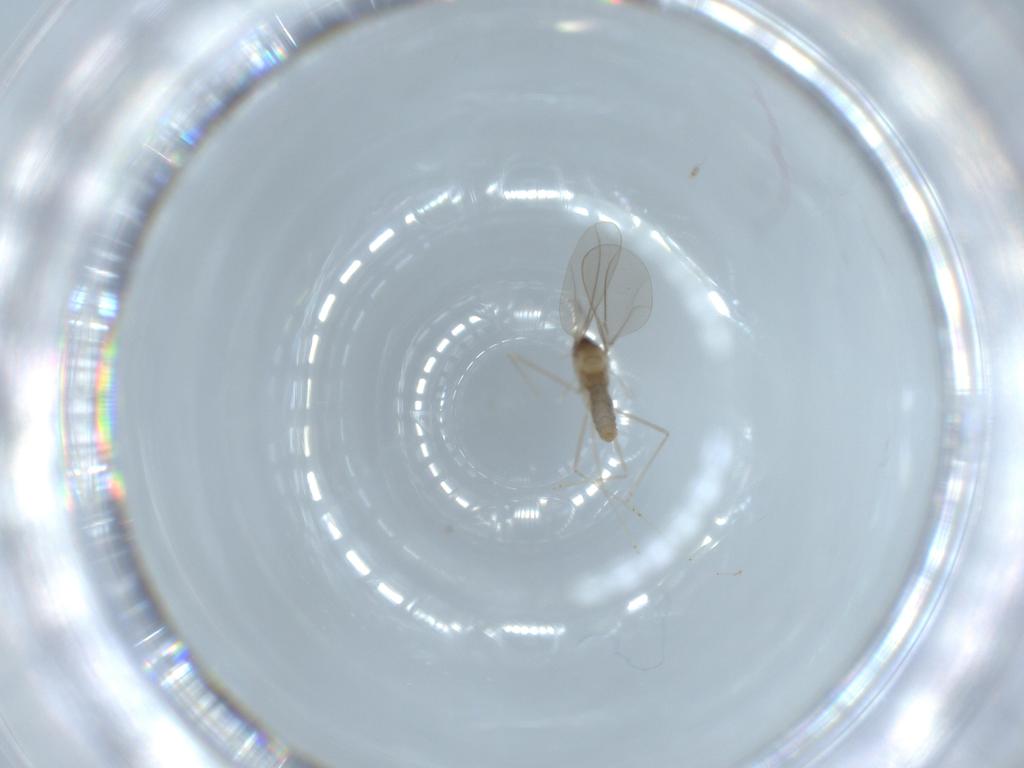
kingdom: Animalia
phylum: Arthropoda
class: Insecta
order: Diptera
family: Cecidomyiidae
